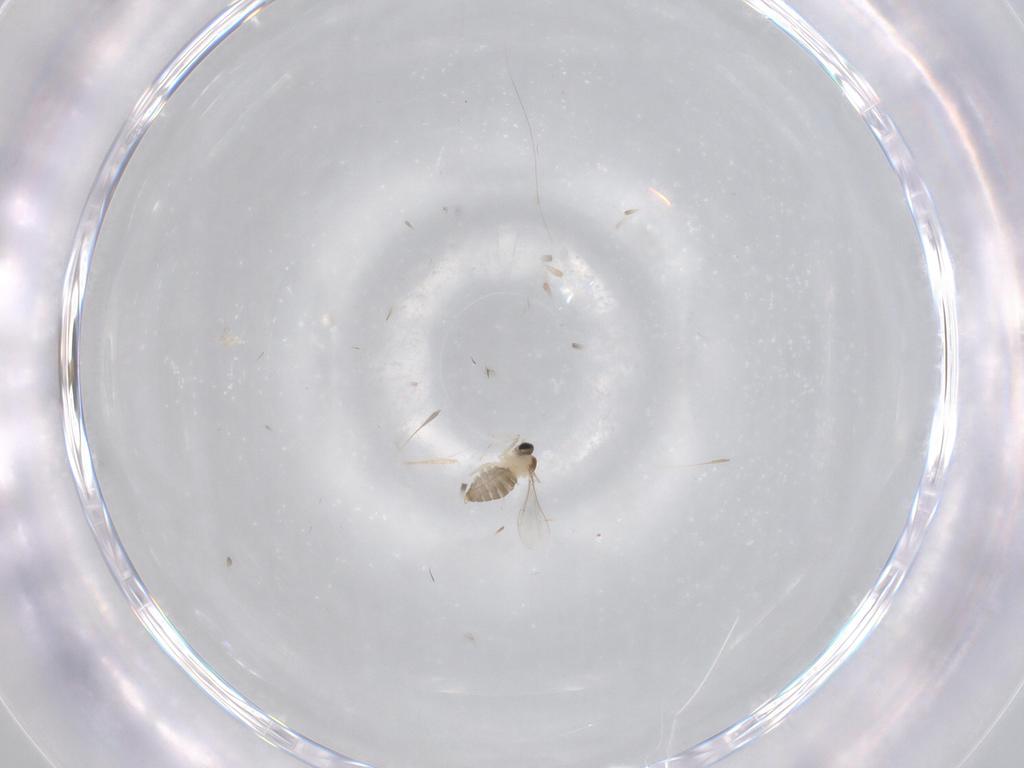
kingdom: Animalia
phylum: Arthropoda
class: Insecta
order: Diptera
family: Cecidomyiidae
